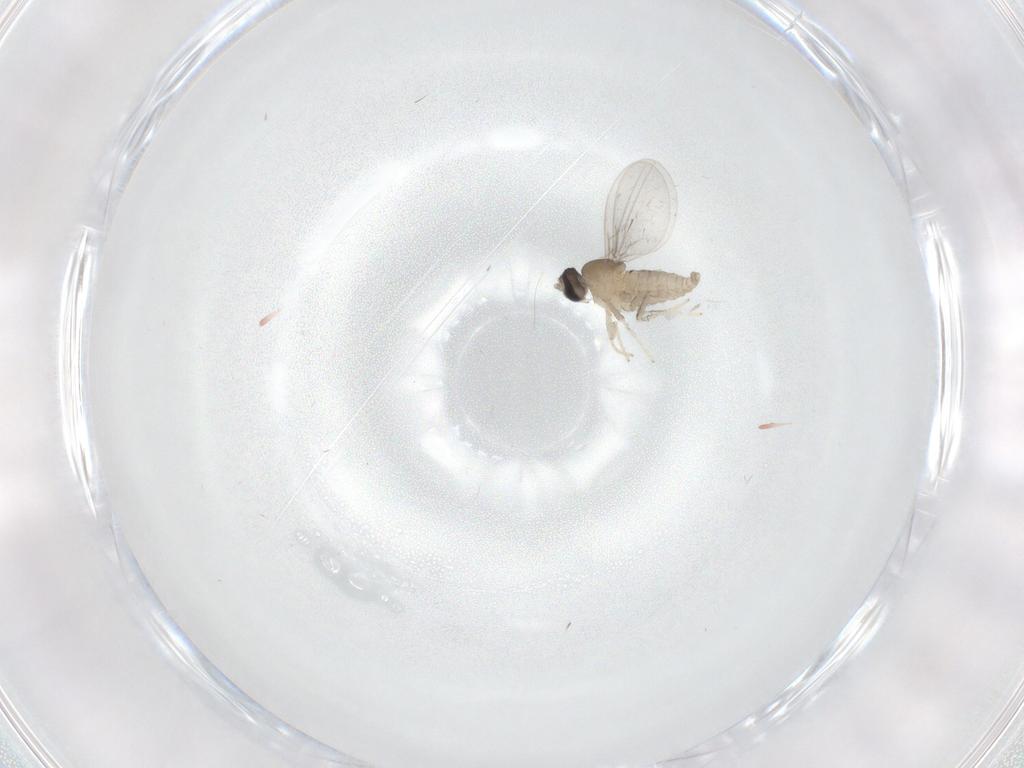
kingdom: Animalia
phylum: Arthropoda
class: Insecta
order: Diptera
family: Cecidomyiidae
